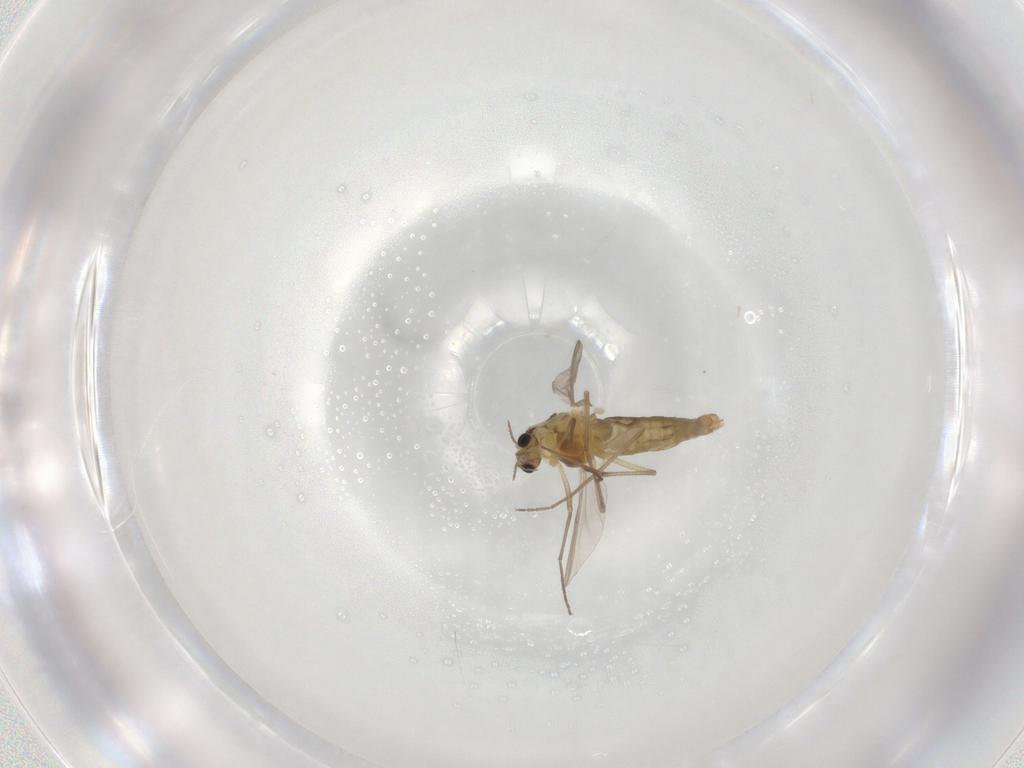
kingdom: Animalia
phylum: Arthropoda
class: Insecta
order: Diptera
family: Chironomidae
